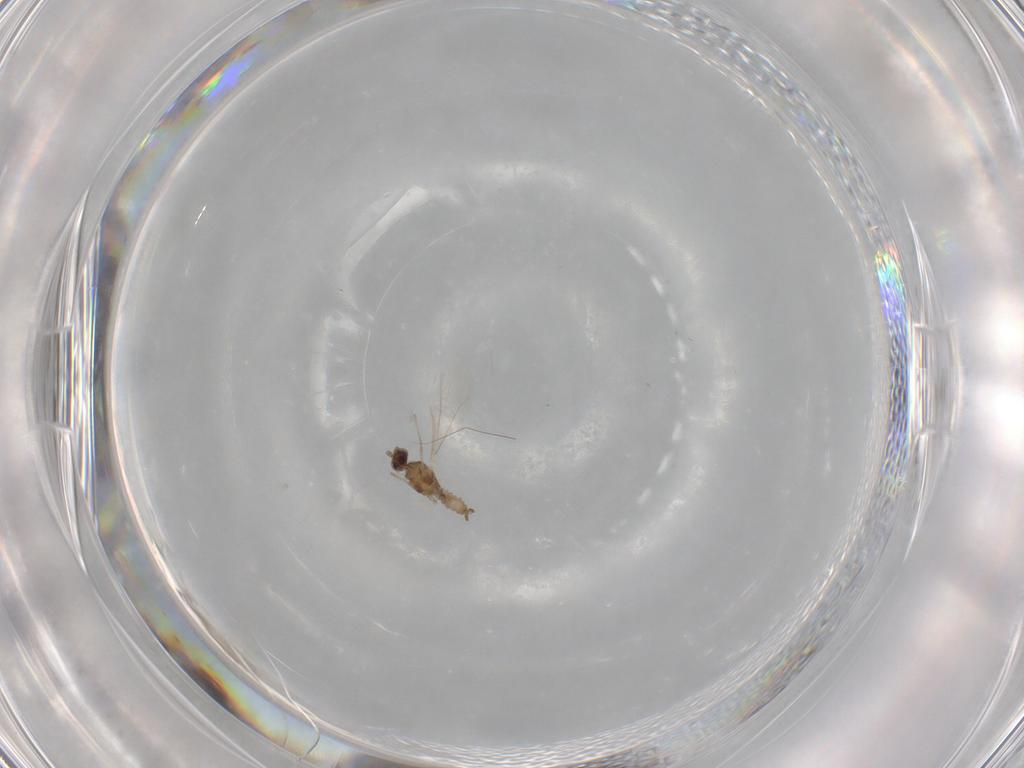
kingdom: Animalia
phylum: Arthropoda
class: Insecta
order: Diptera
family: Cecidomyiidae
